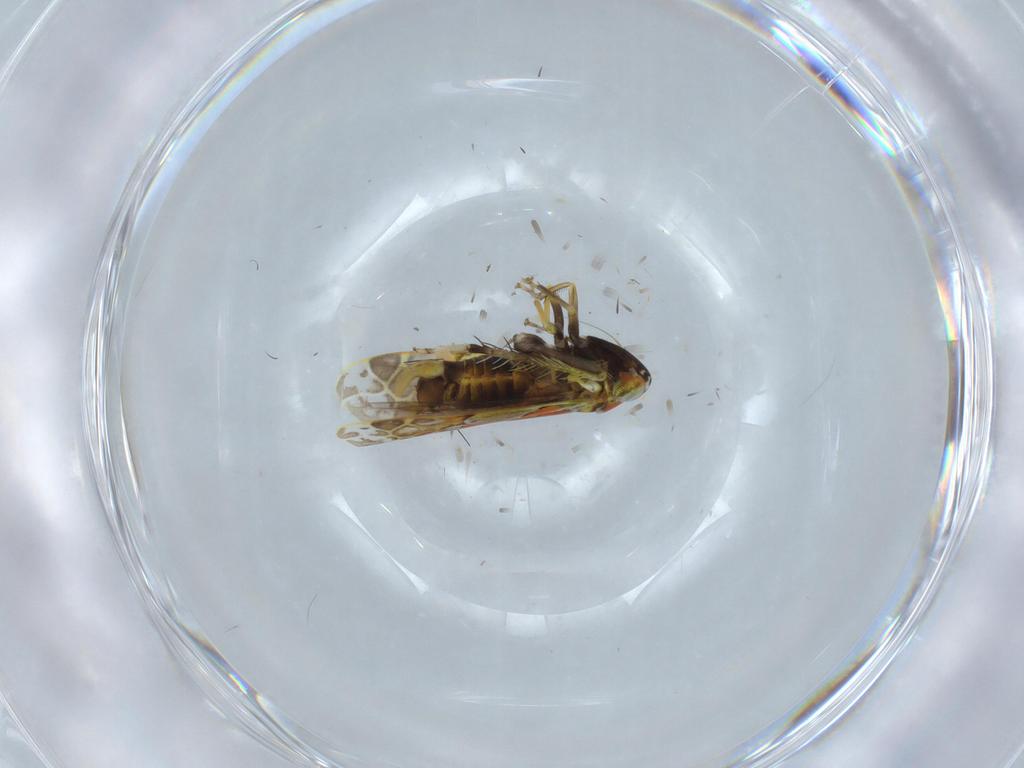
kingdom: Animalia
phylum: Arthropoda
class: Insecta
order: Hemiptera
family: Cicadellidae
